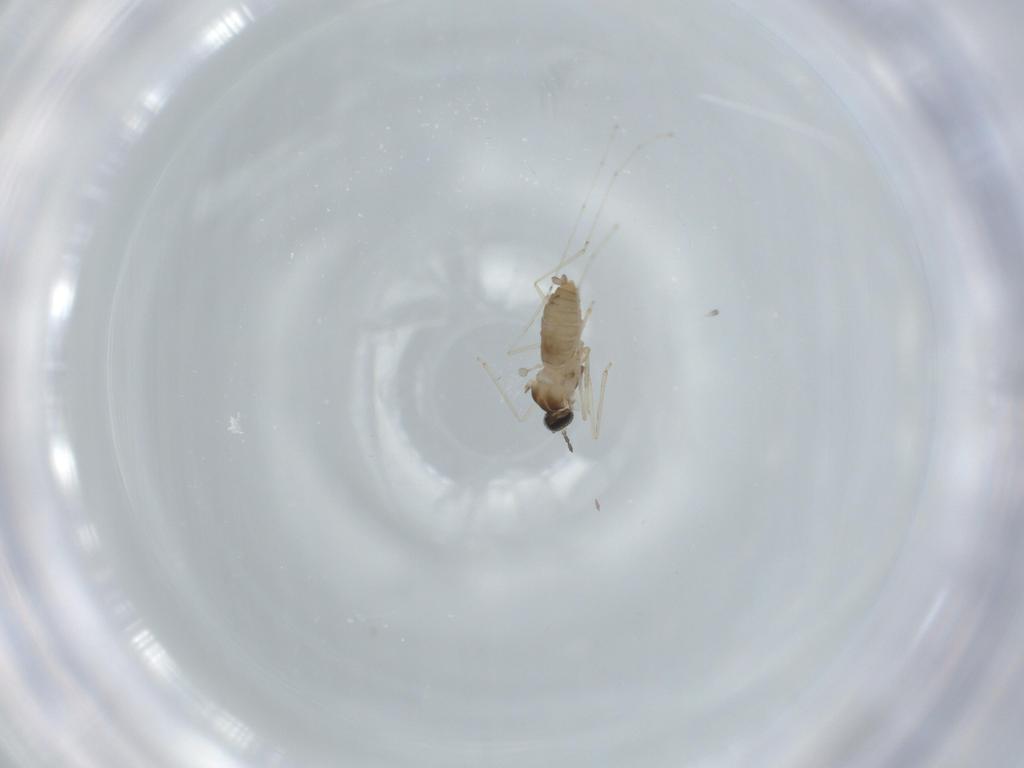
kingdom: Animalia
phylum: Arthropoda
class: Insecta
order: Diptera
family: Cecidomyiidae
